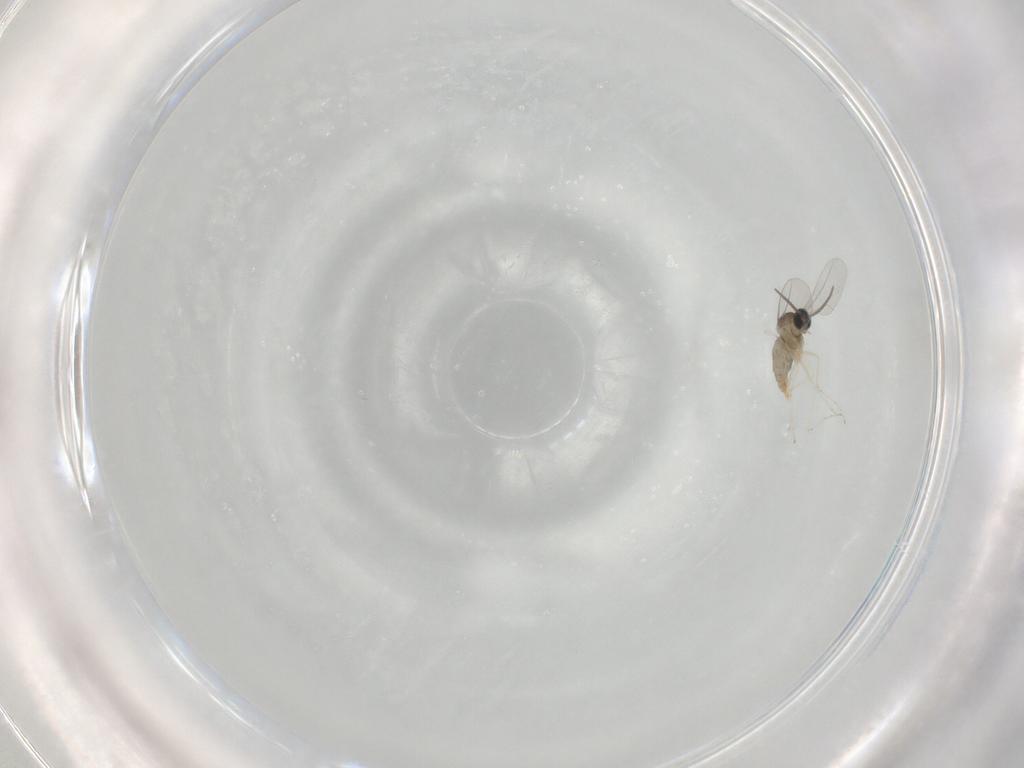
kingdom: Animalia
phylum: Arthropoda
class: Insecta
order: Diptera
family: Cecidomyiidae
